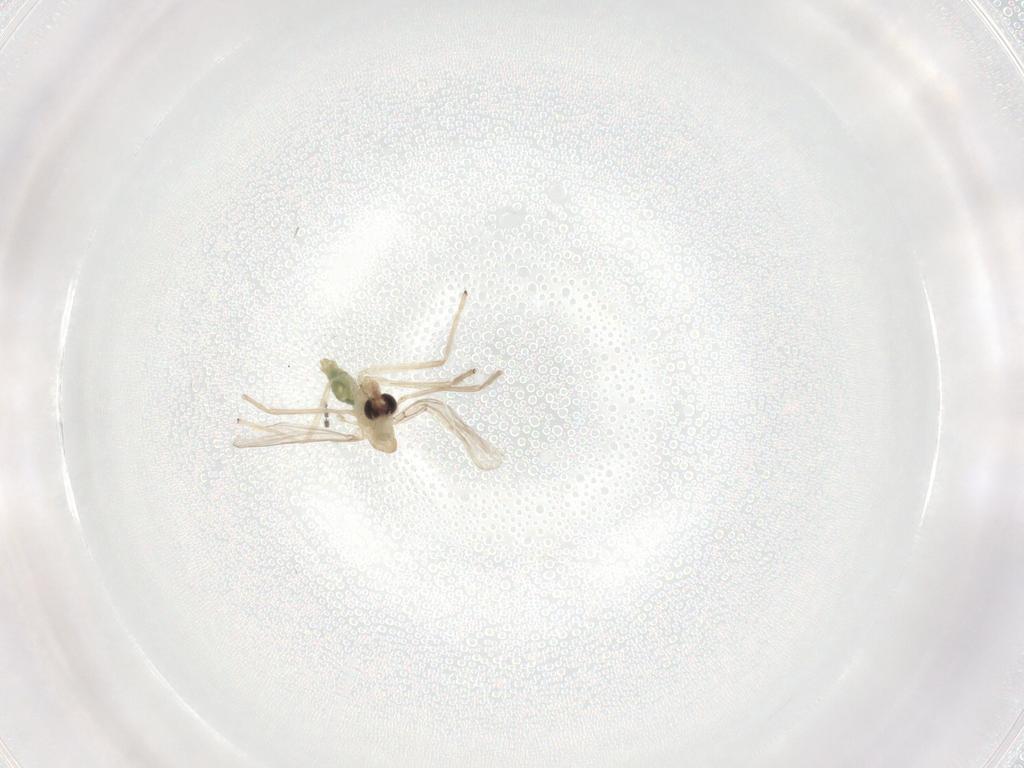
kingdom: Animalia
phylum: Arthropoda
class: Insecta
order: Diptera
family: Chironomidae
